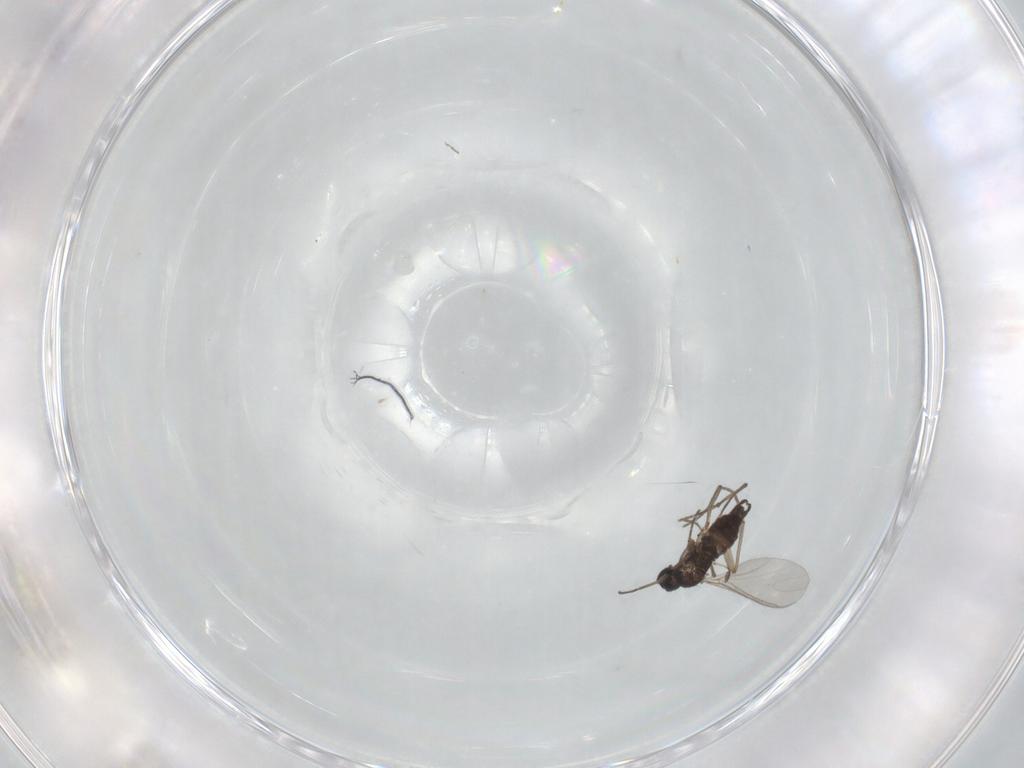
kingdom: Animalia
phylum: Arthropoda
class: Insecta
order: Diptera
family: Sciaridae
